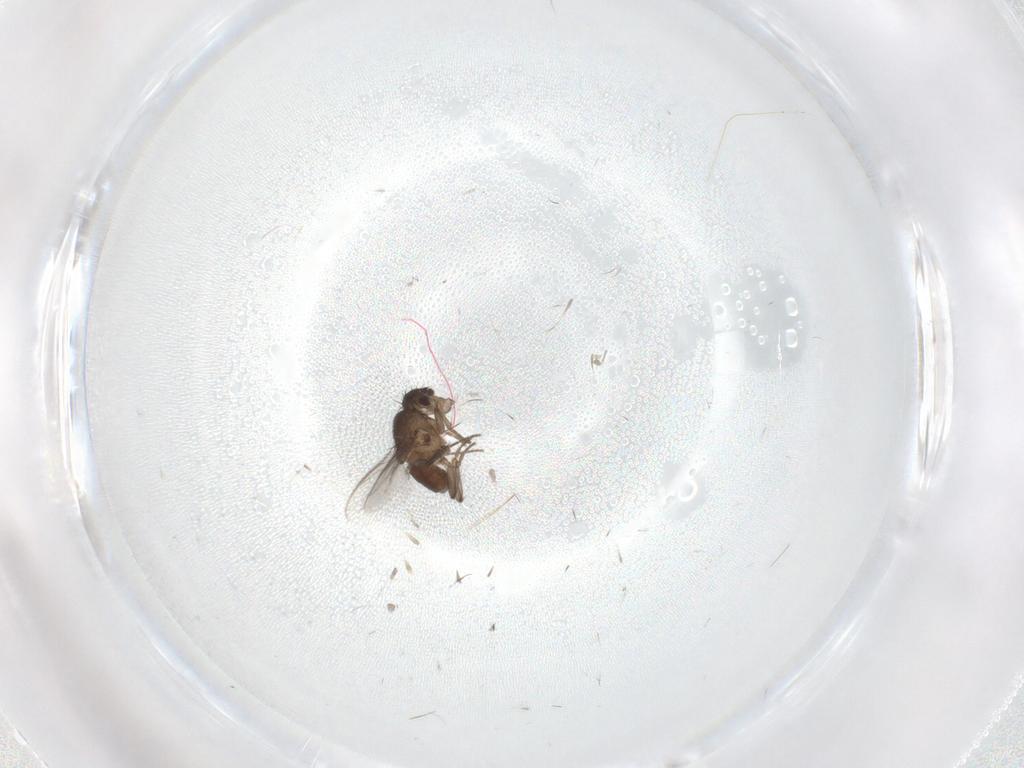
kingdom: Animalia
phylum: Arthropoda
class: Insecta
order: Diptera
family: Sphaeroceridae
